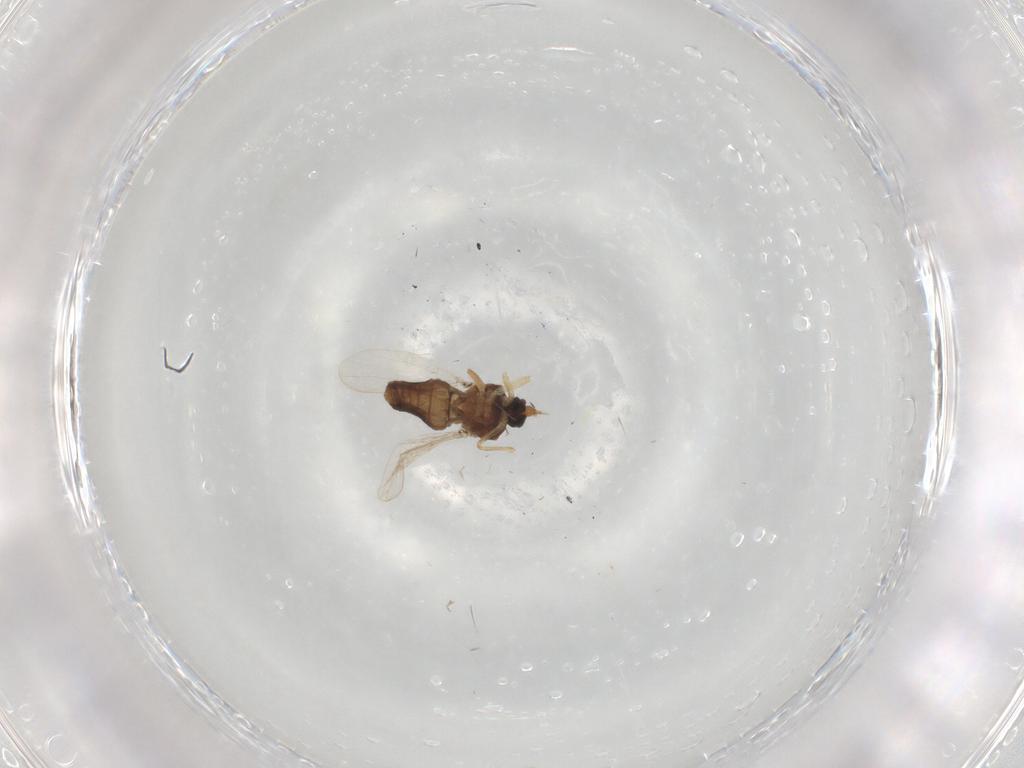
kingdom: Animalia
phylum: Arthropoda
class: Insecta
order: Diptera
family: Ceratopogonidae
